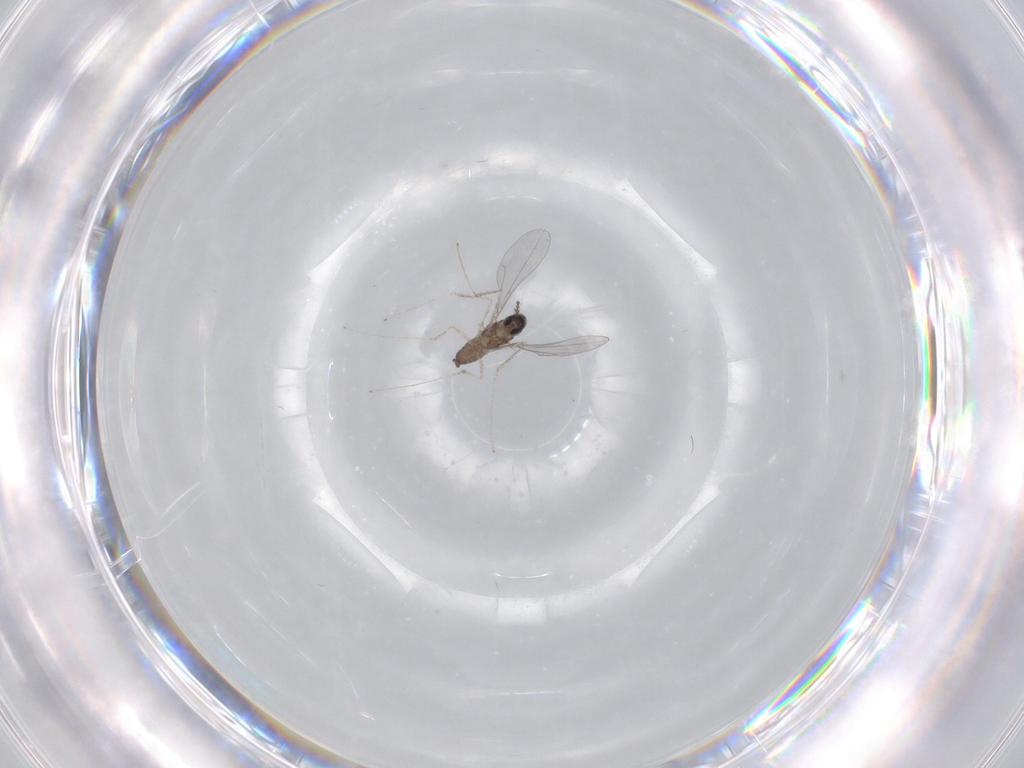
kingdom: Animalia
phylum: Arthropoda
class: Insecta
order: Diptera
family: Cecidomyiidae
